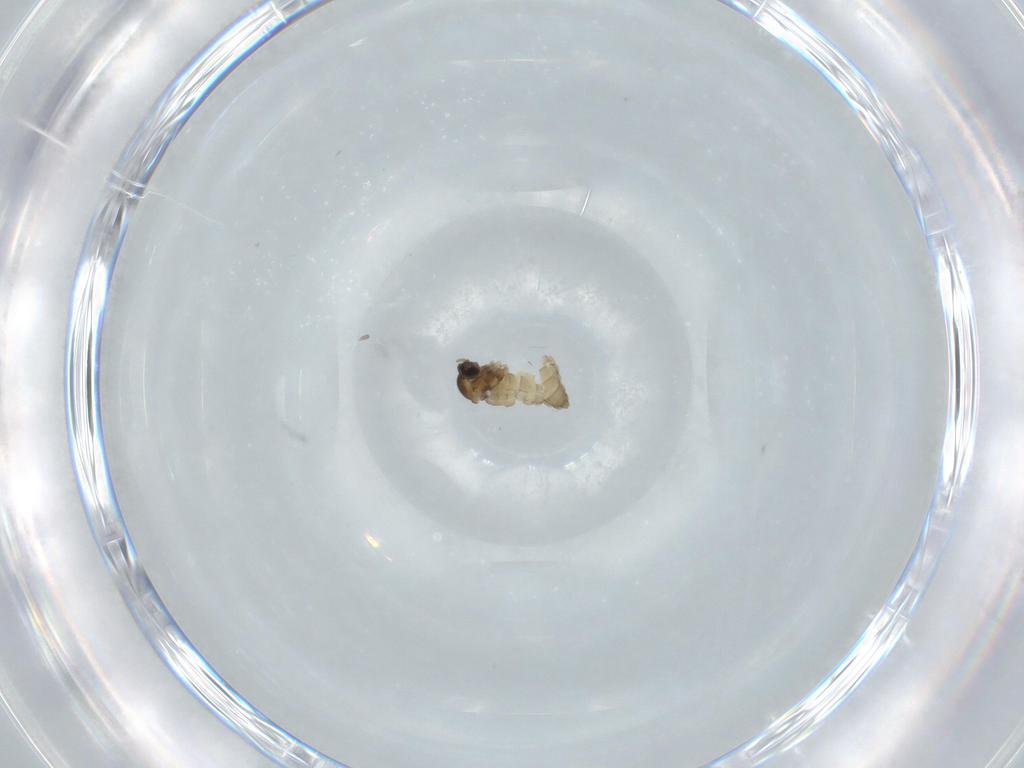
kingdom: Animalia
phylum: Arthropoda
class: Insecta
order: Diptera
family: Cecidomyiidae
